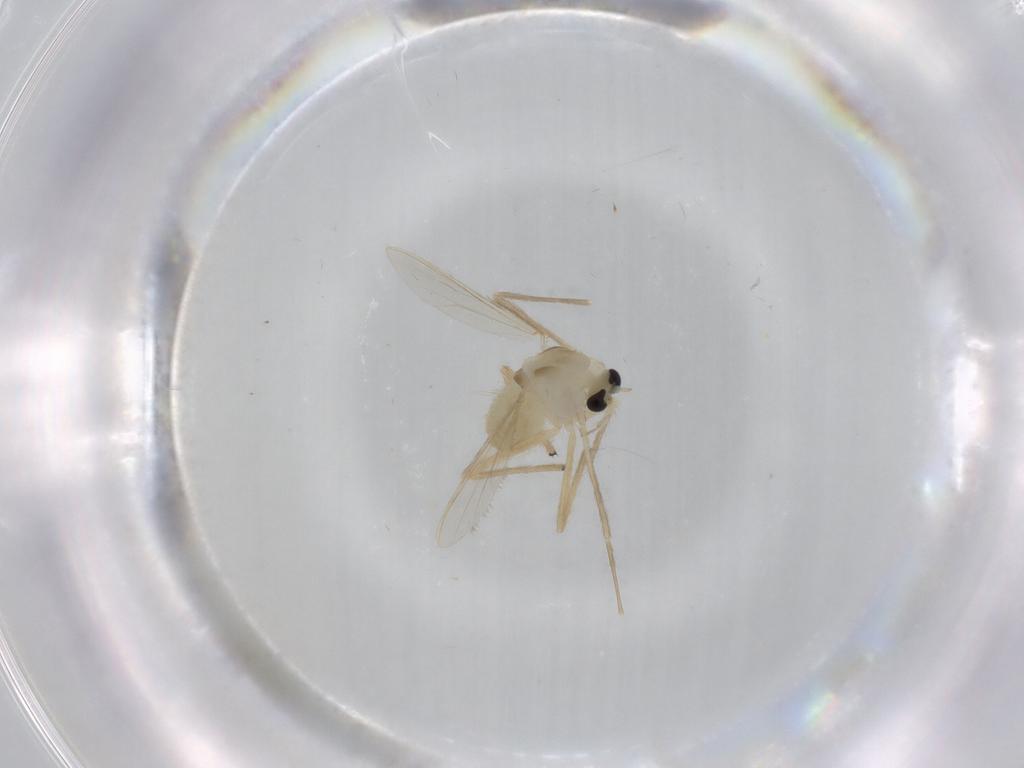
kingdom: Animalia
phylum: Arthropoda
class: Insecta
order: Diptera
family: Chironomidae
